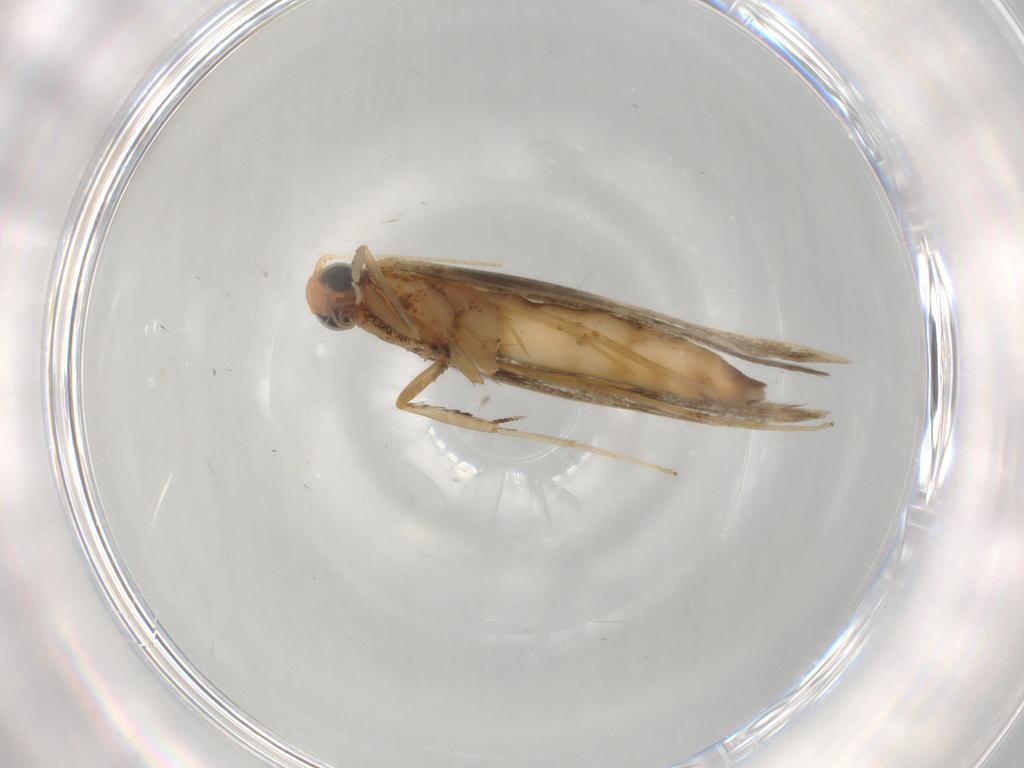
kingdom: Animalia
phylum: Arthropoda
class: Insecta
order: Lepidoptera
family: Gracillariidae
